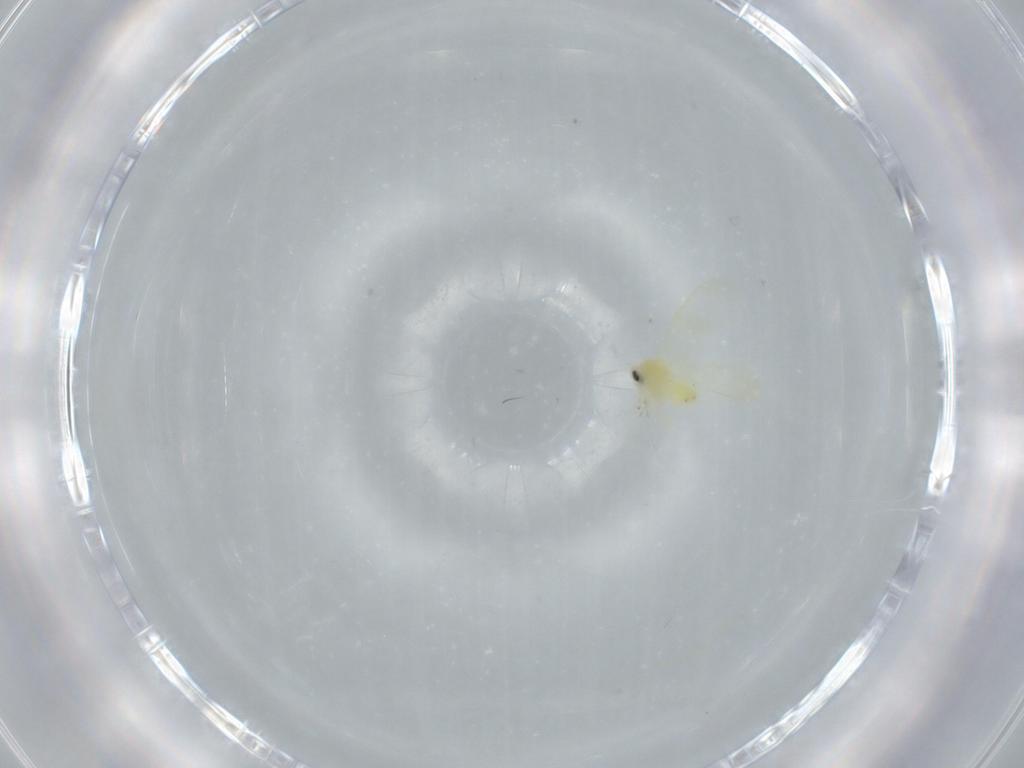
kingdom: Animalia
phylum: Arthropoda
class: Insecta
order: Hemiptera
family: Aleyrodidae
